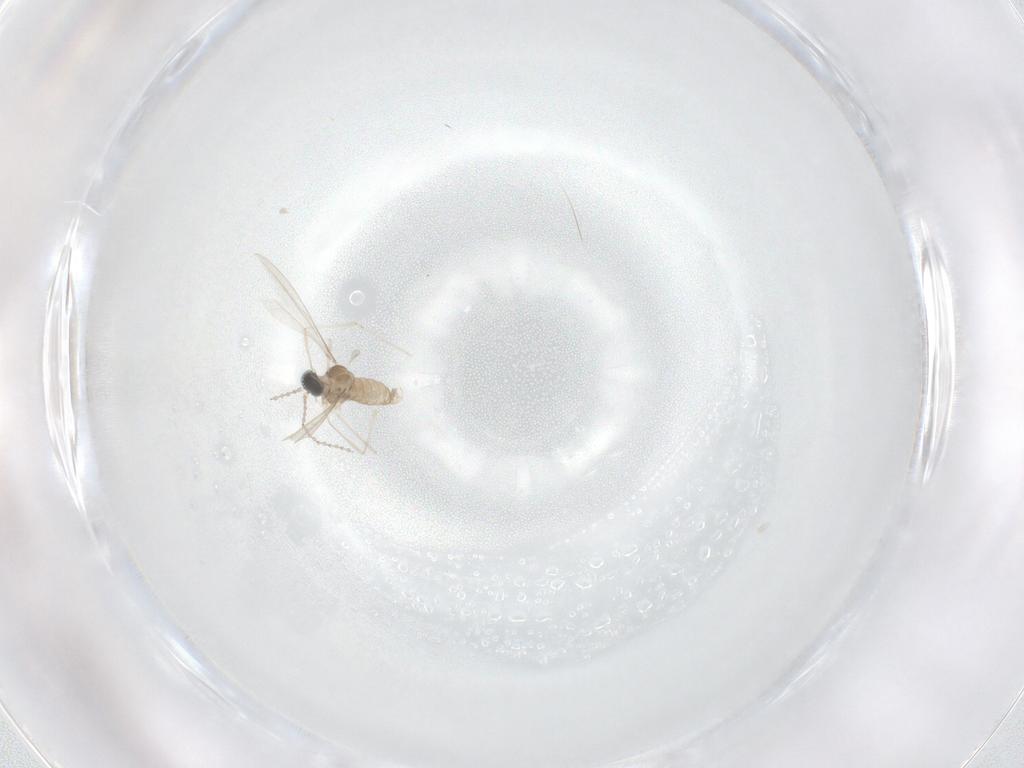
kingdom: Animalia
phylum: Arthropoda
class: Insecta
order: Diptera
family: Cecidomyiidae
